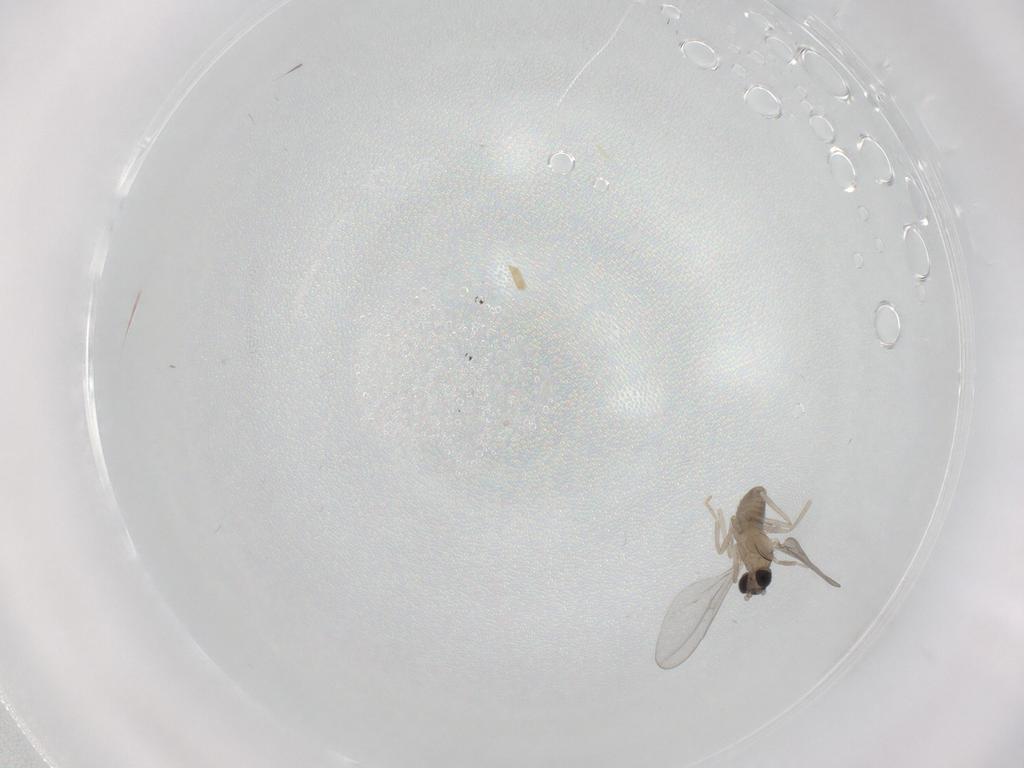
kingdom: Animalia
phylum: Arthropoda
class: Insecta
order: Diptera
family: Cecidomyiidae
